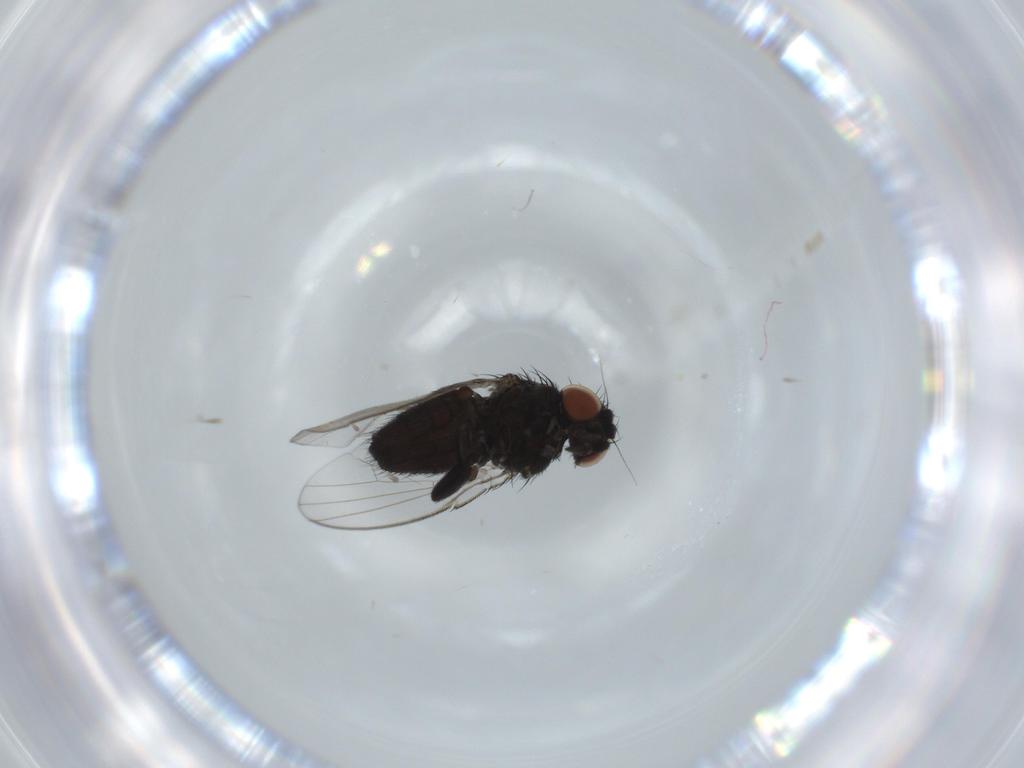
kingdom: Animalia
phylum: Arthropoda
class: Insecta
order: Diptera
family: Milichiidae
